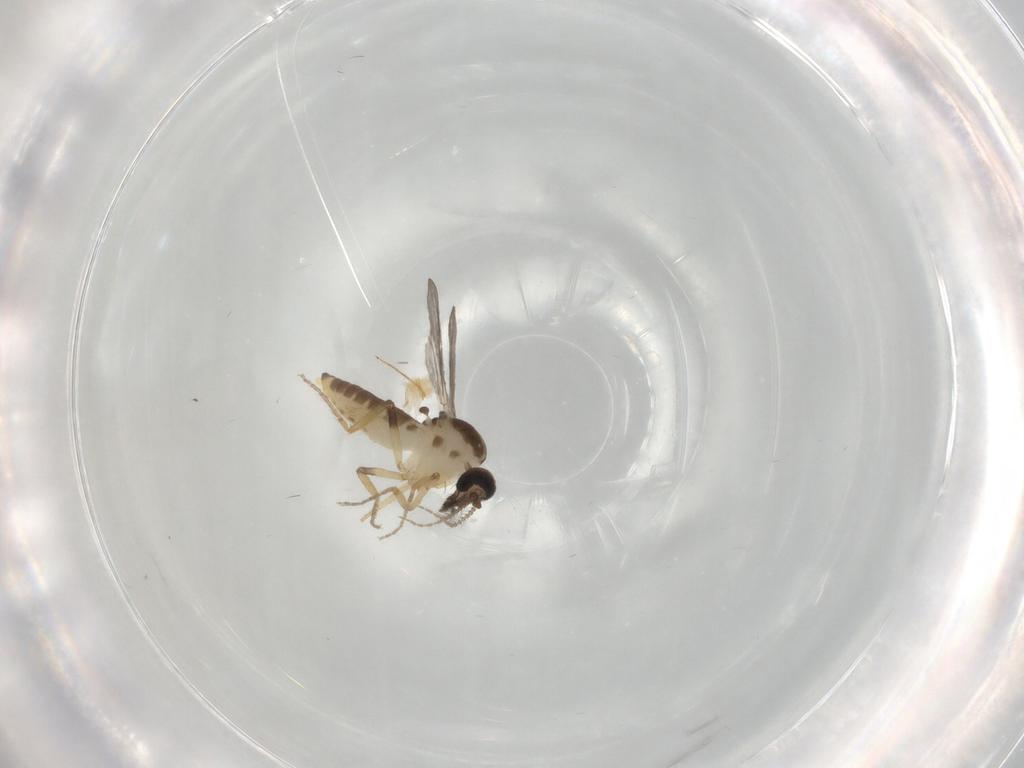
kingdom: Animalia
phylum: Arthropoda
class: Insecta
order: Diptera
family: Ceratopogonidae
